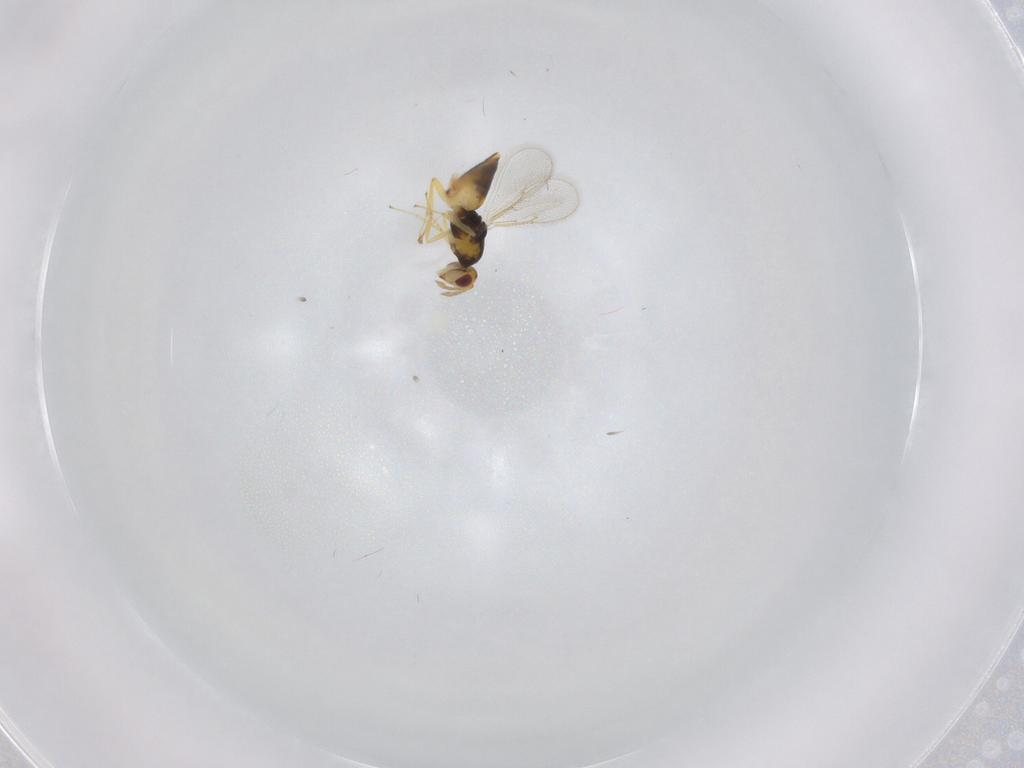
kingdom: Animalia
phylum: Arthropoda
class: Insecta
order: Hymenoptera
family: Eulophidae
